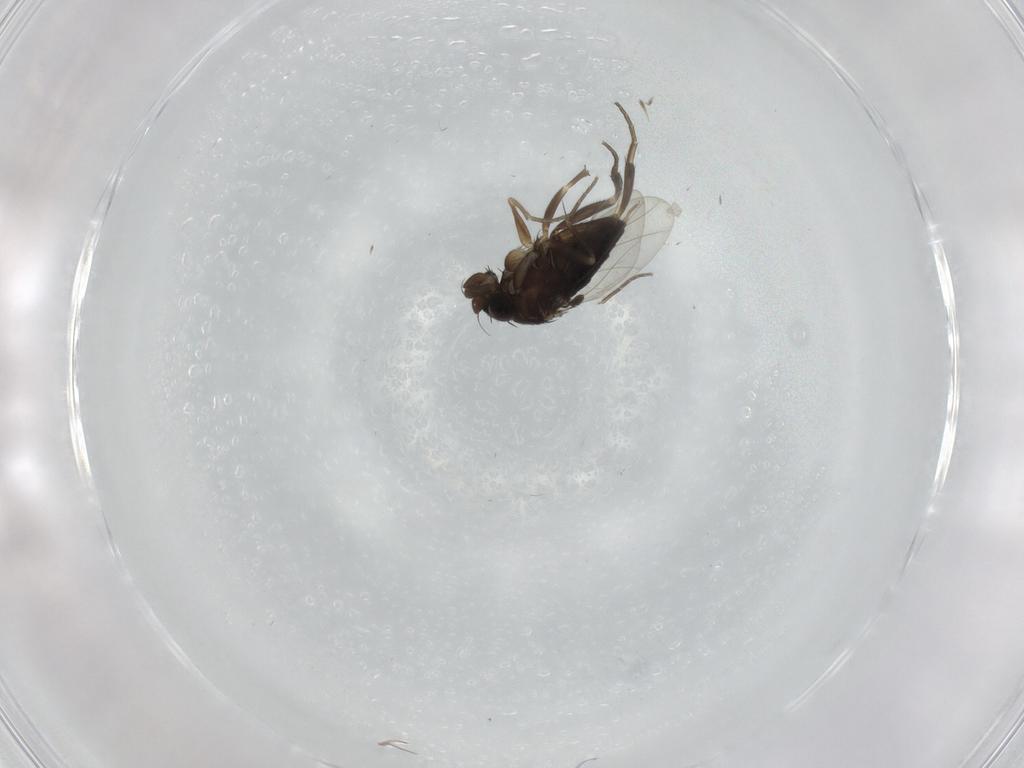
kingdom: Animalia
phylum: Arthropoda
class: Insecta
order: Diptera
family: Phoridae
